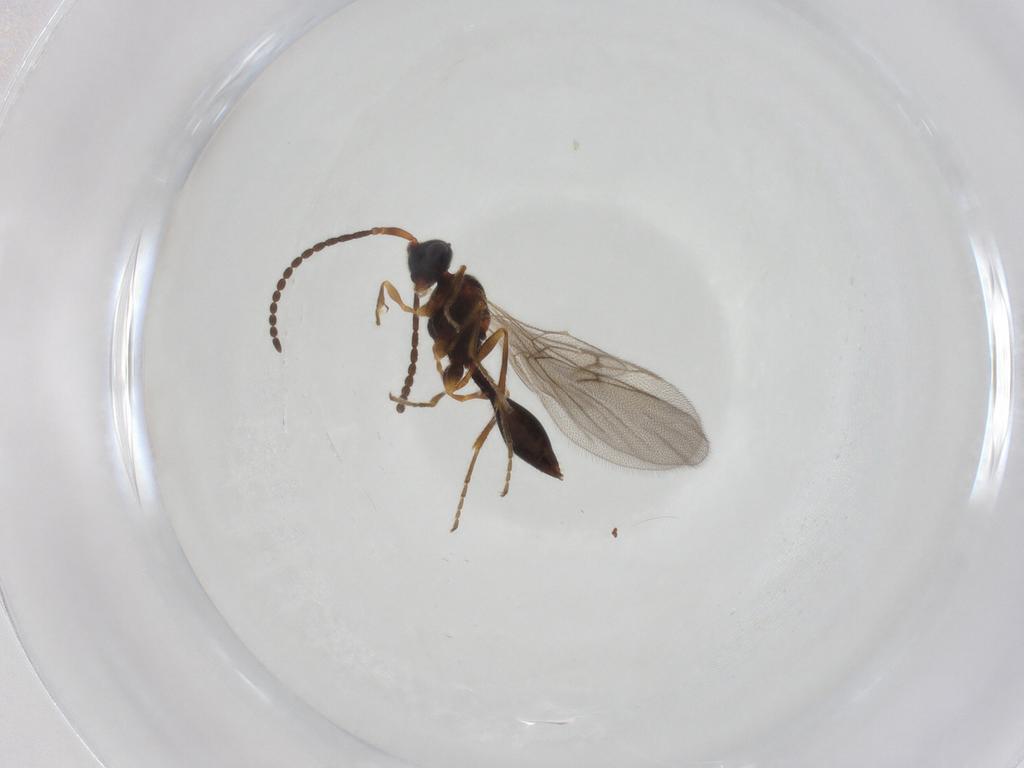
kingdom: Animalia
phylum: Arthropoda
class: Insecta
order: Hymenoptera
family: Diapriidae
